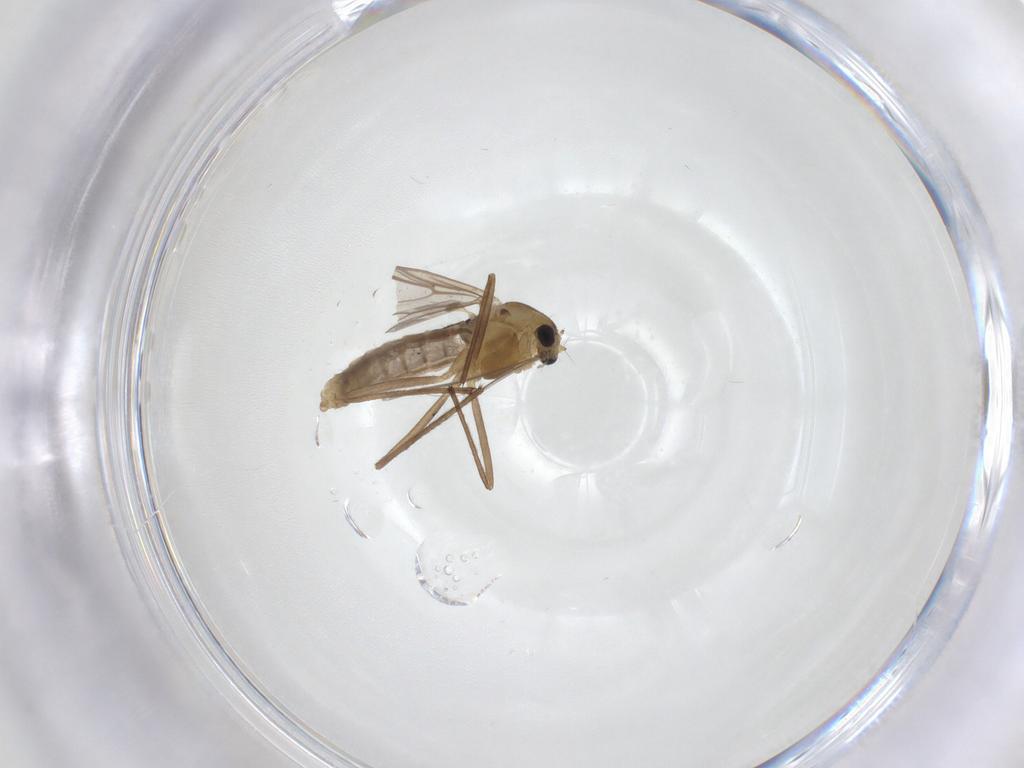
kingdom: Animalia
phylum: Arthropoda
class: Insecta
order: Diptera
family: Chironomidae
